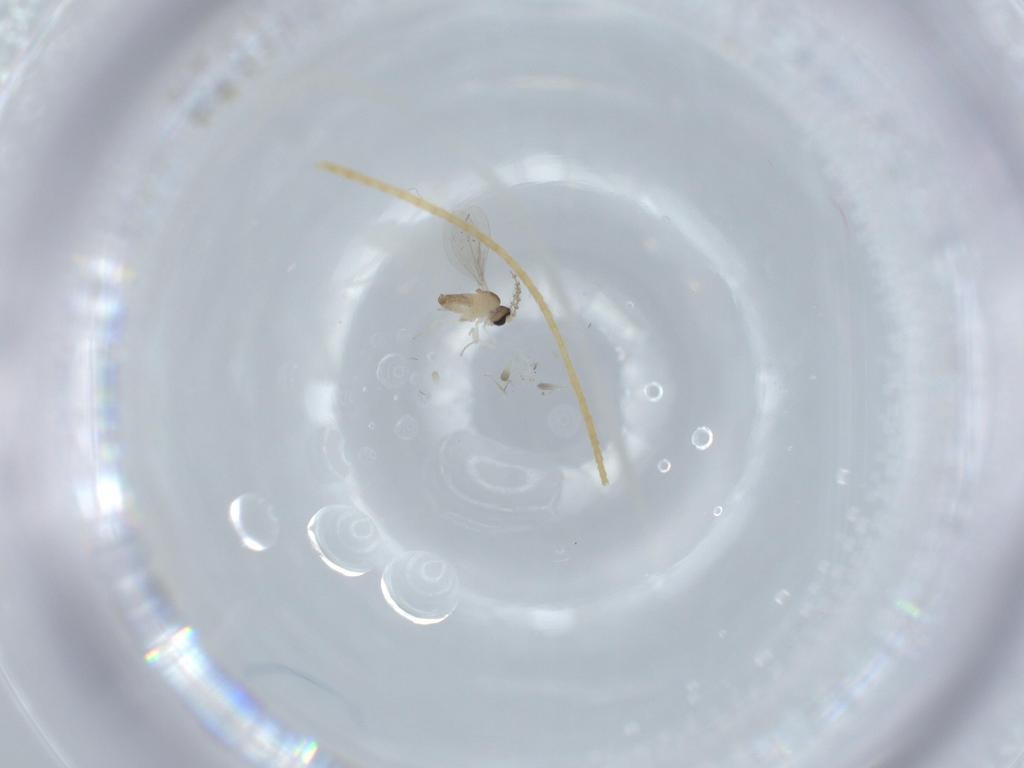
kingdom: Animalia
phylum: Arthropoda
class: Insecta
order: Diptera
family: Cecidomyiidae
